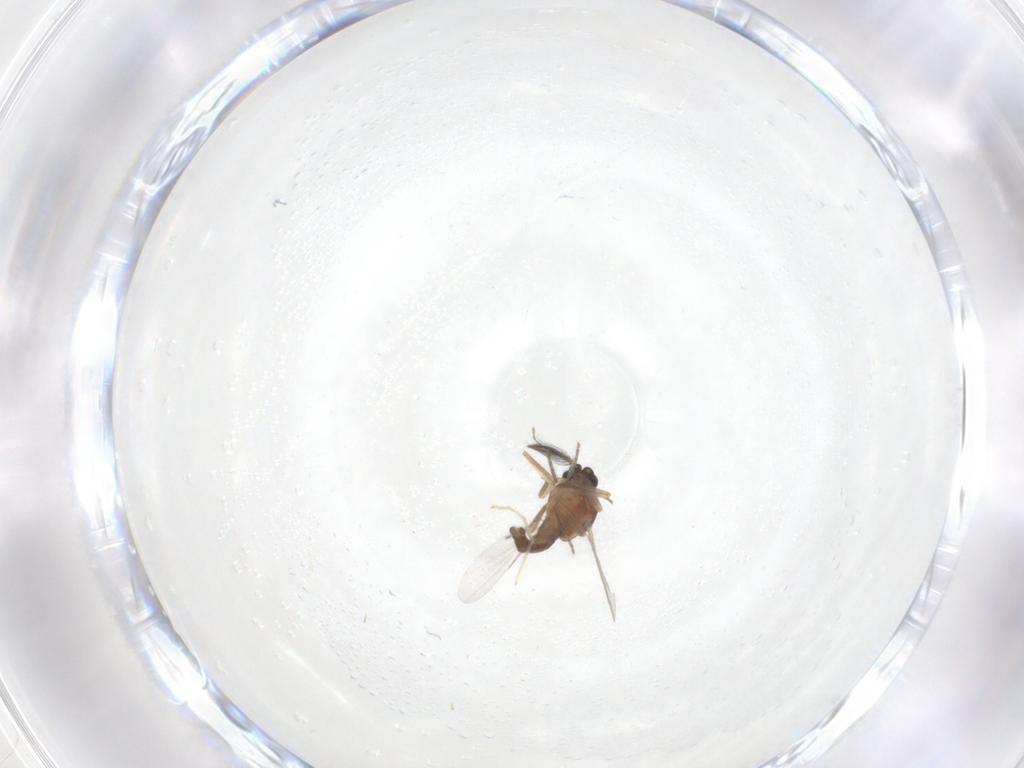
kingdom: Animalia
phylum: Arthropoda
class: Insecta
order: Diptera
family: Ceratopogonidae
